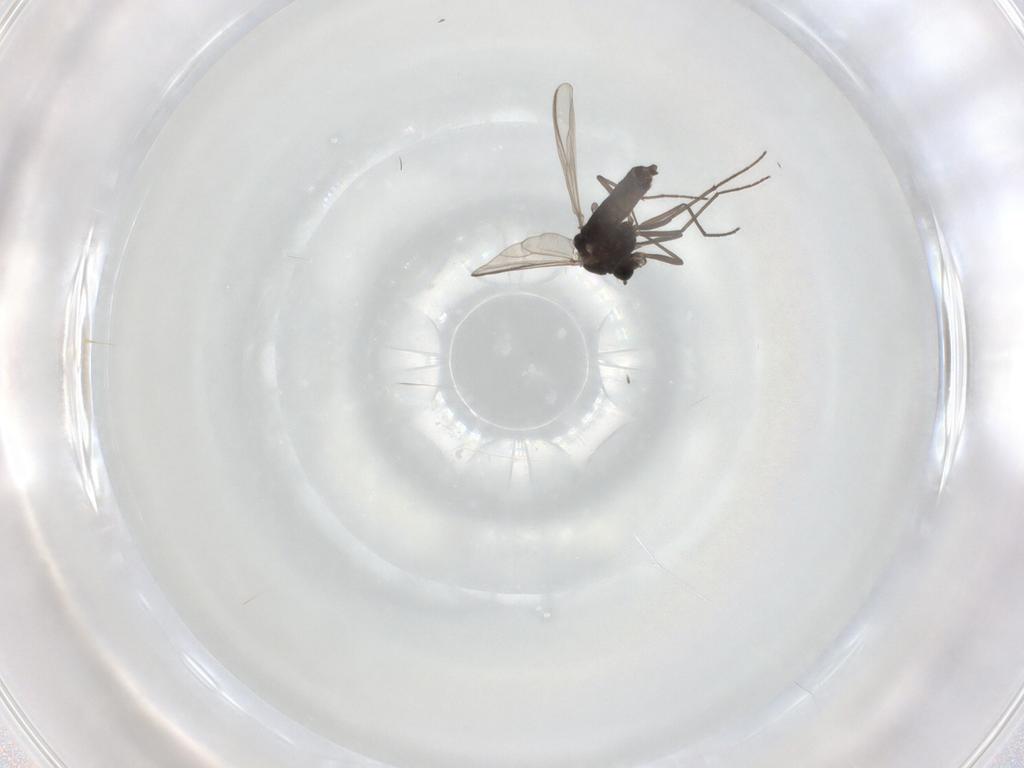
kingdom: Animalia
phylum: Arthropoda
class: Insecta
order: Diptera
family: Chironomidae
